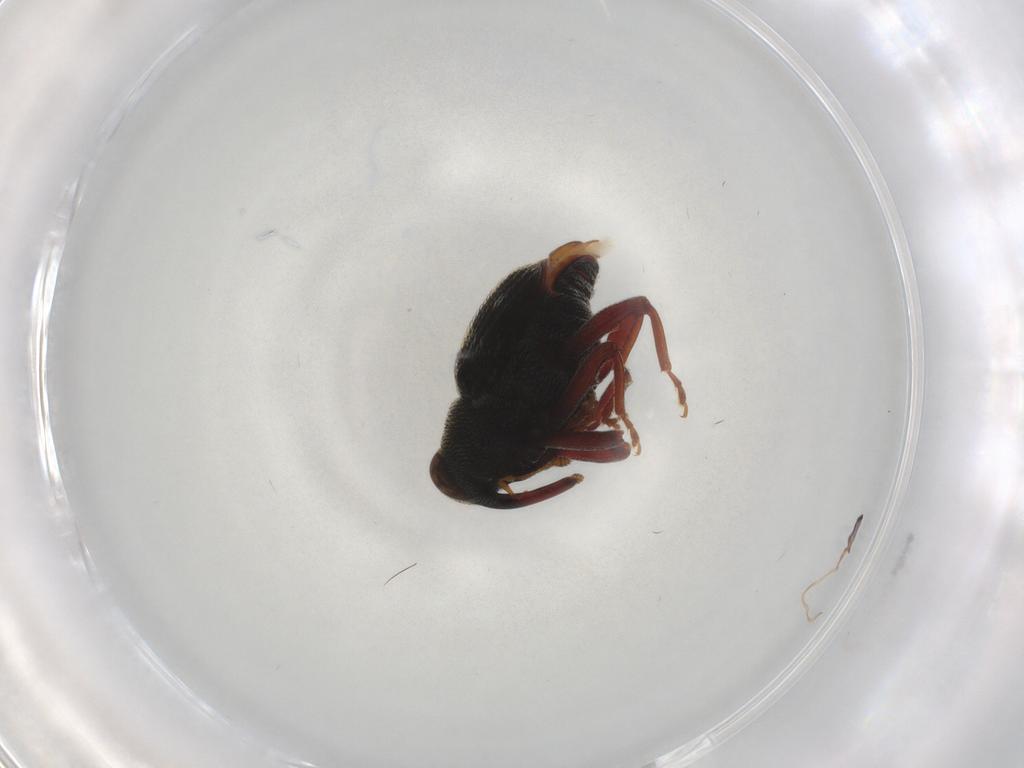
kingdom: Animalia
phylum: Arthropoda
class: Insecta
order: Coleoptera
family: Curculionidae
